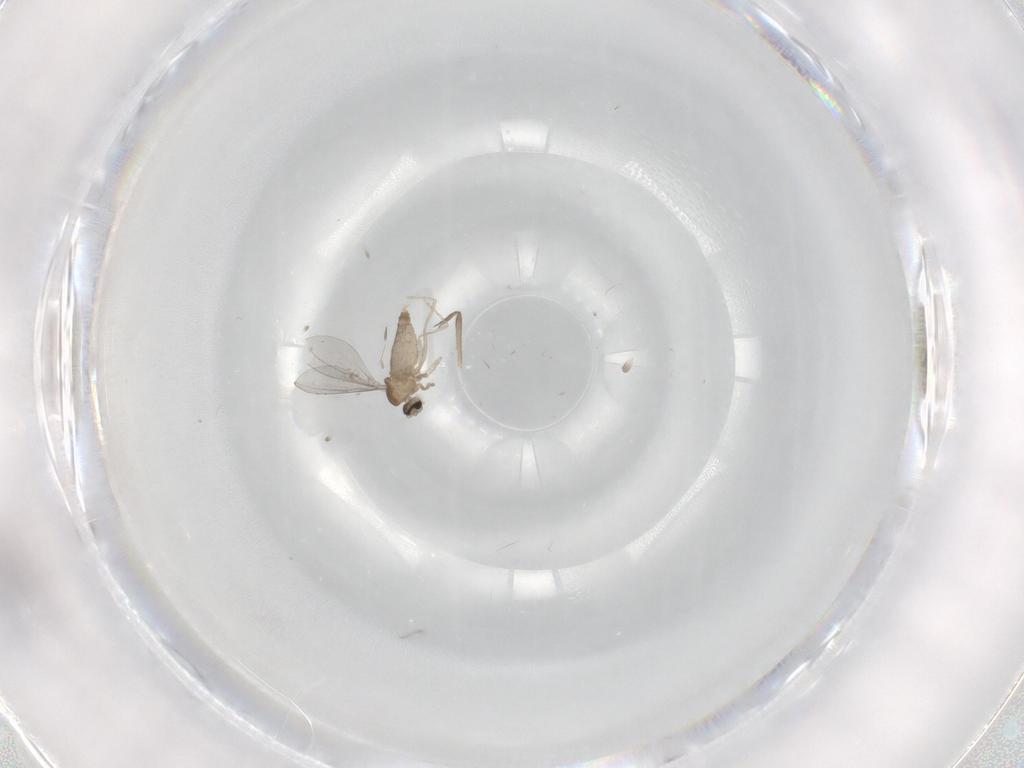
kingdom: Animalia
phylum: Arthropoda
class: Insecta
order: Diptera
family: Cecidomyiidae
